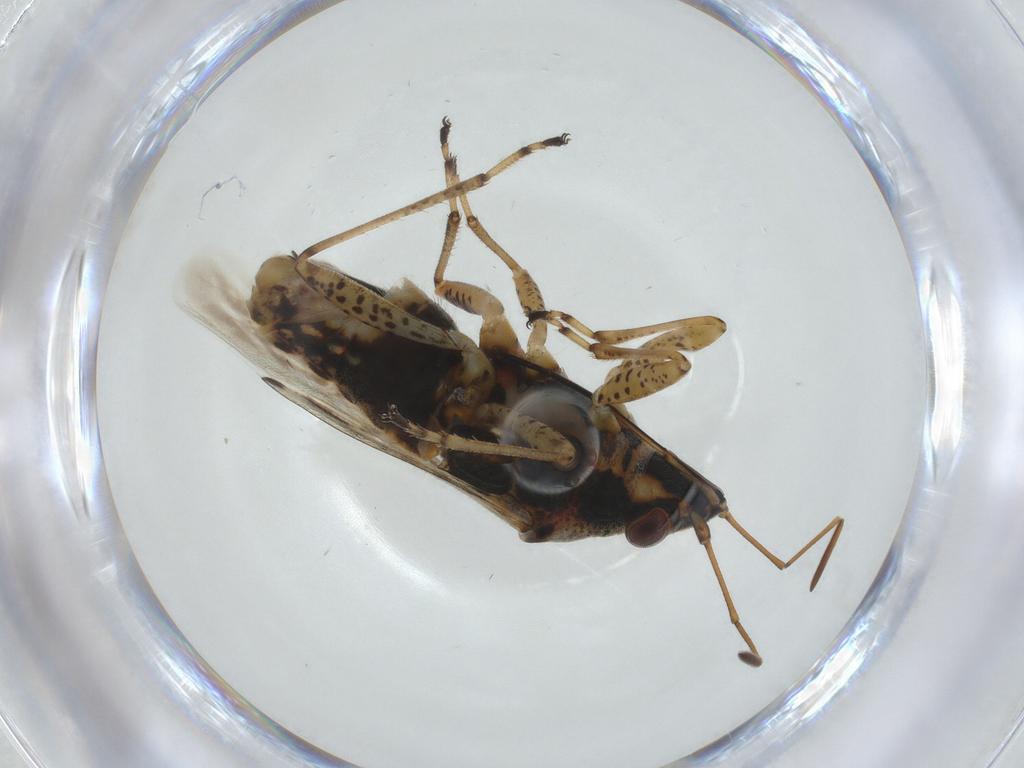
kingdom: Animalia
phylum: Arthropoda
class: Insecta
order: Hemiptera
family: Lygaeidae
